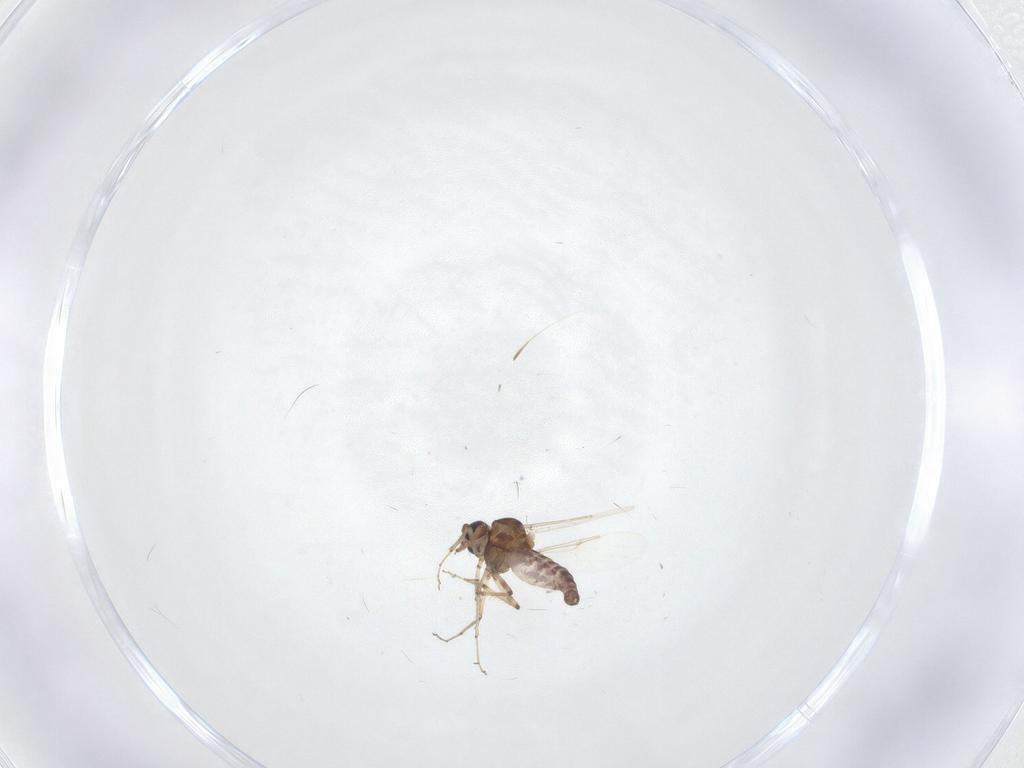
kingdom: Animalia
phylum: Arthropoda
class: Insecta
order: Diptera
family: Ceratopogonidae
